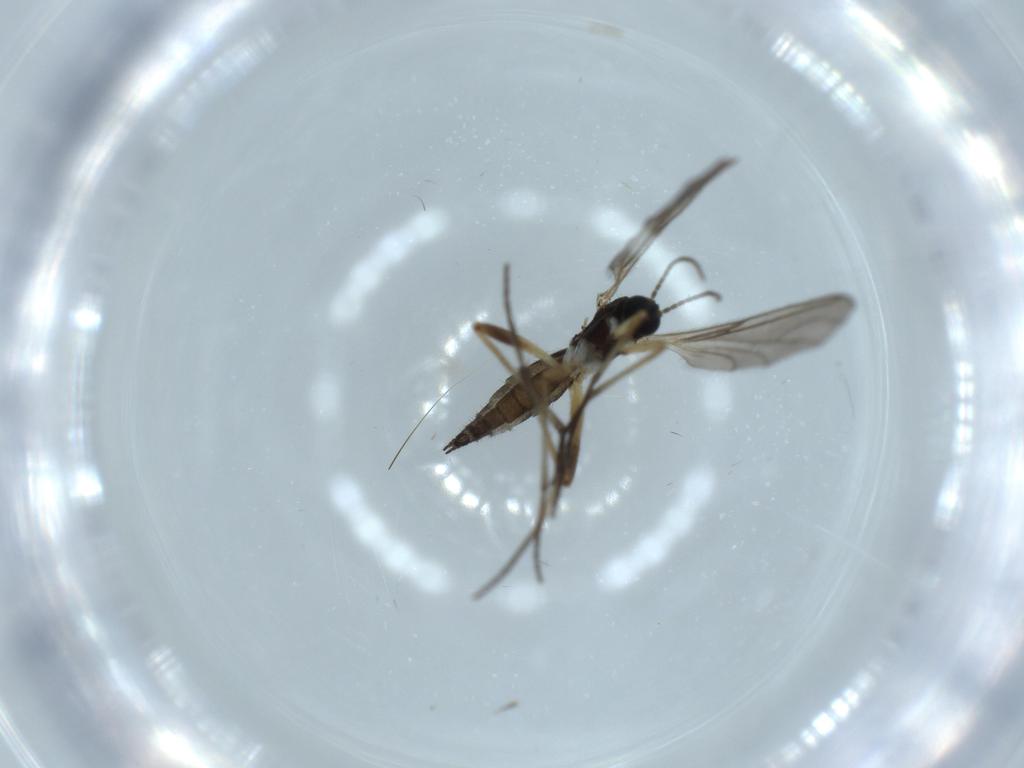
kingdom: Animalia
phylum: Arthropoda
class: Insecta
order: Diptera
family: Sciaridae
